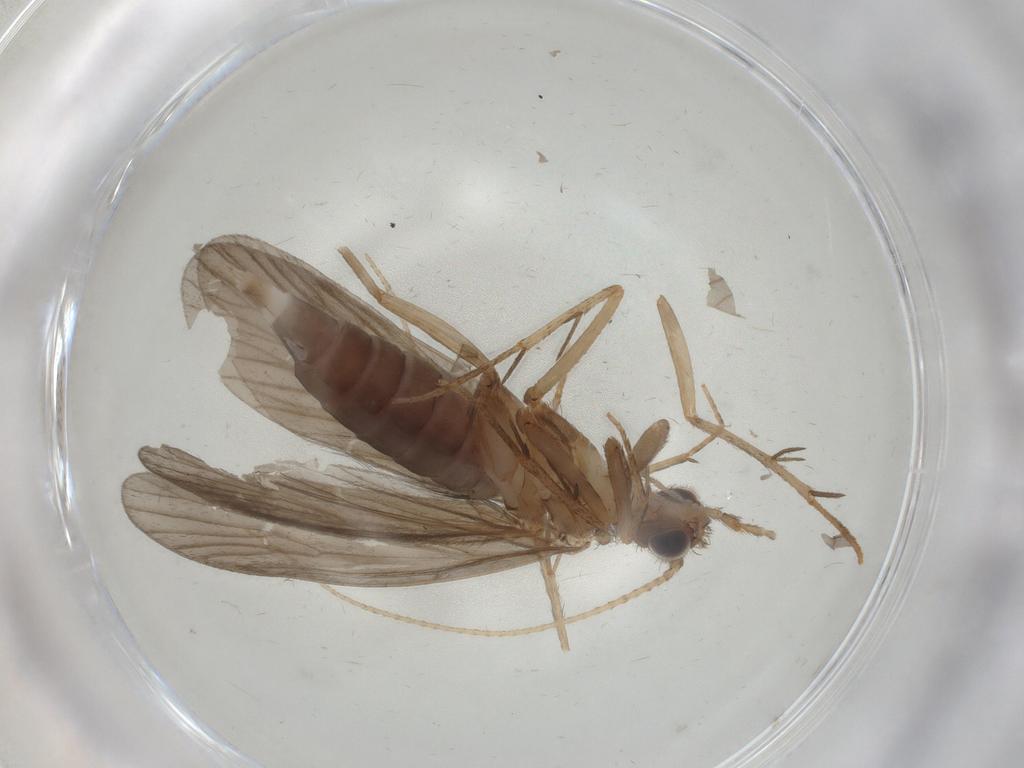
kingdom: Animalia
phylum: Arthropoda
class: Insecta
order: Trichoptera
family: Philopotamidae
